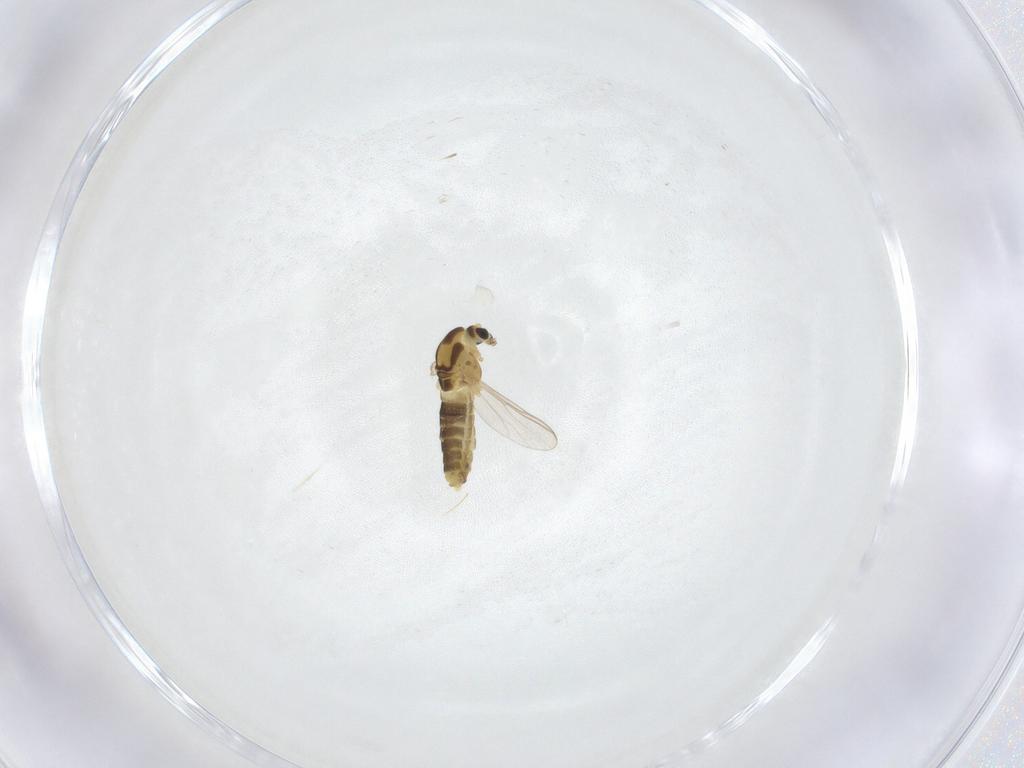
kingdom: Animalia
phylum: Arthropoda
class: Insecta
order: Diptera
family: Chironomidae
